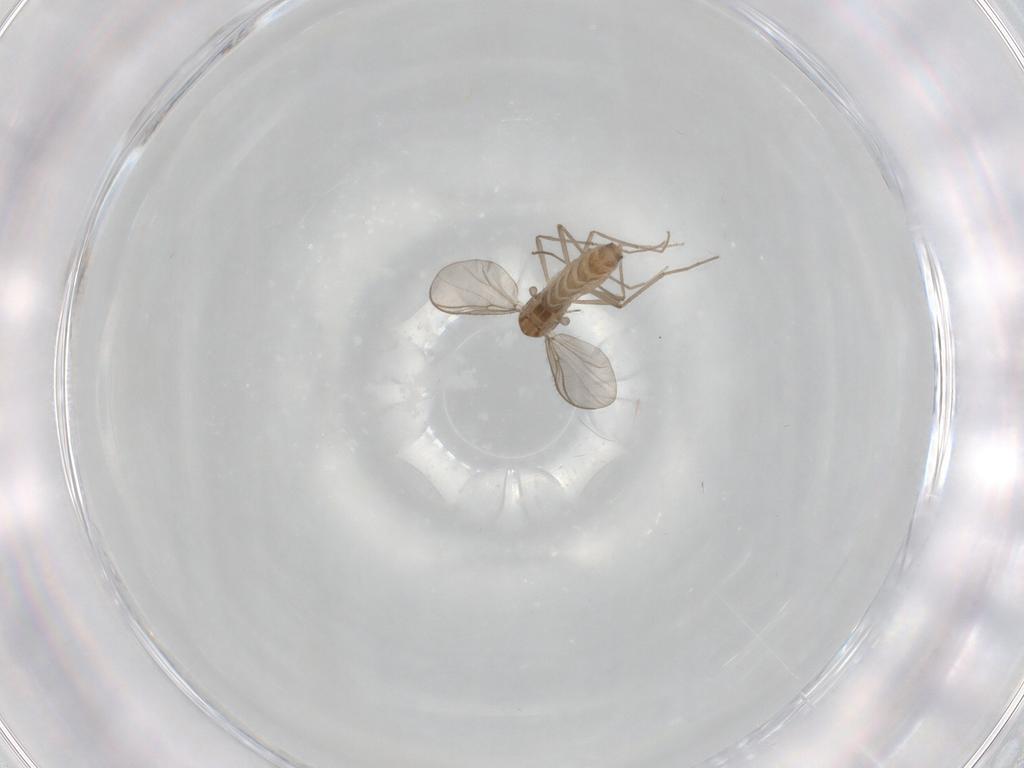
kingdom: Animalia
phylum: Arthropoda
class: Insecta
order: Diptera
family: Chironomidae
